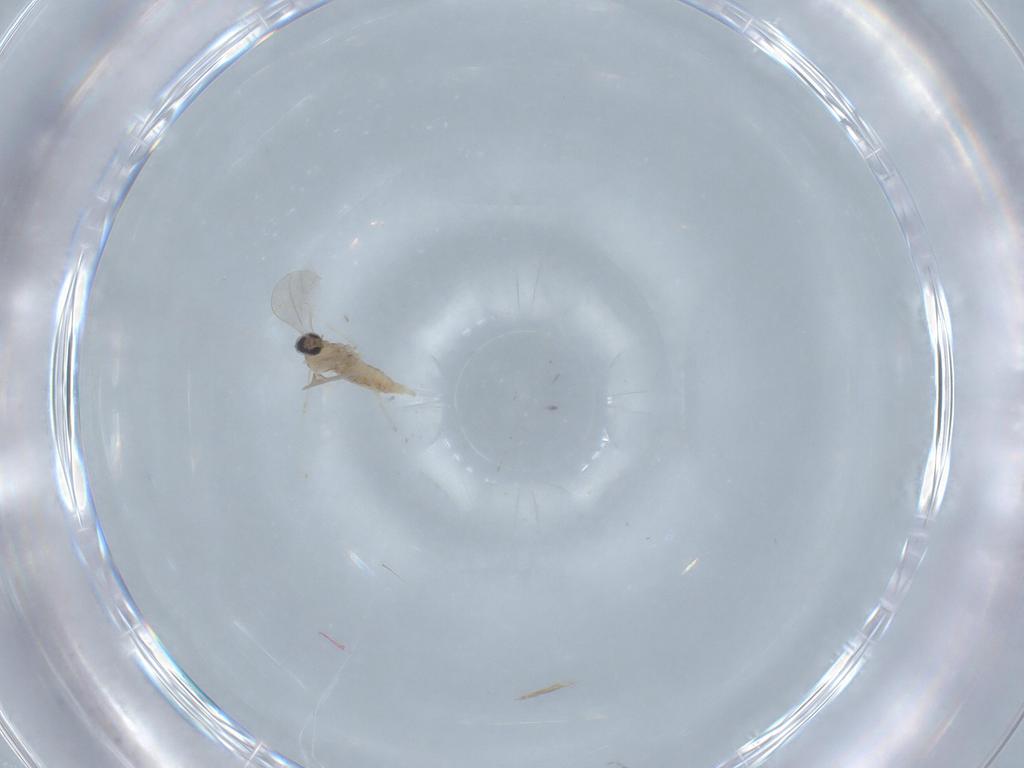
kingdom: Animalia
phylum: Arthropoda
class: Insecta
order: Diptera
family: Cecidomyiidae
